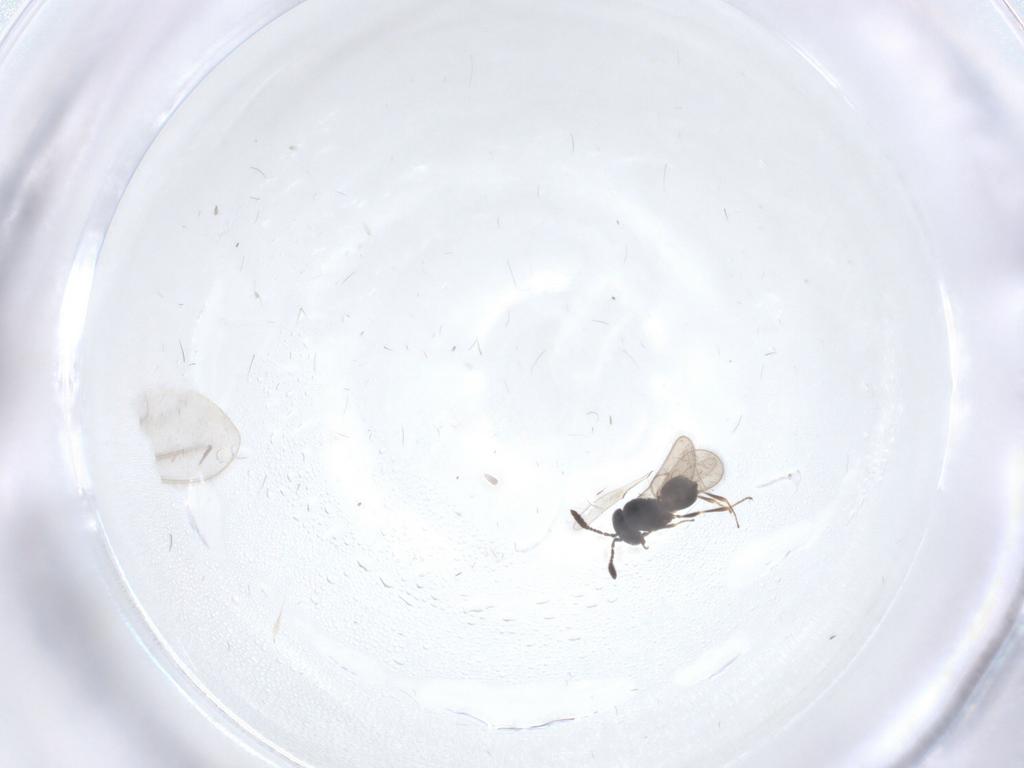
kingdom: Animalia
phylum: Arthropoda
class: Insecta
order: Hymenoptera
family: Scelionidae
